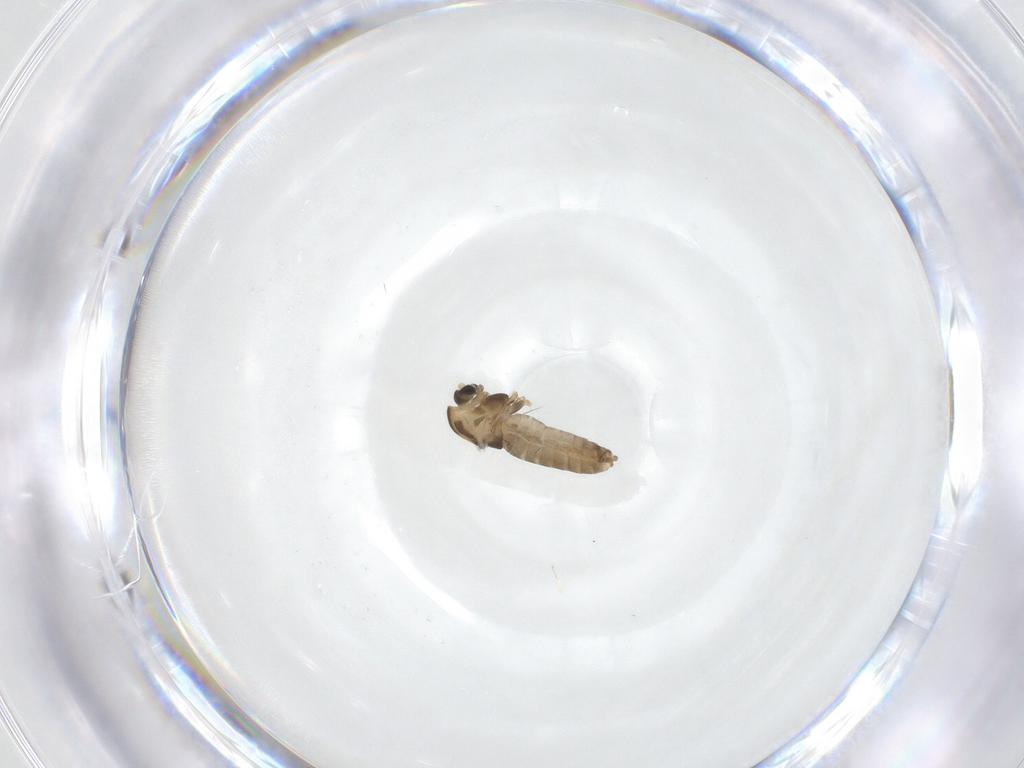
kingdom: Animalia
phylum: Arthropoda
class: Insecta
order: Diptera
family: Chironomidae
